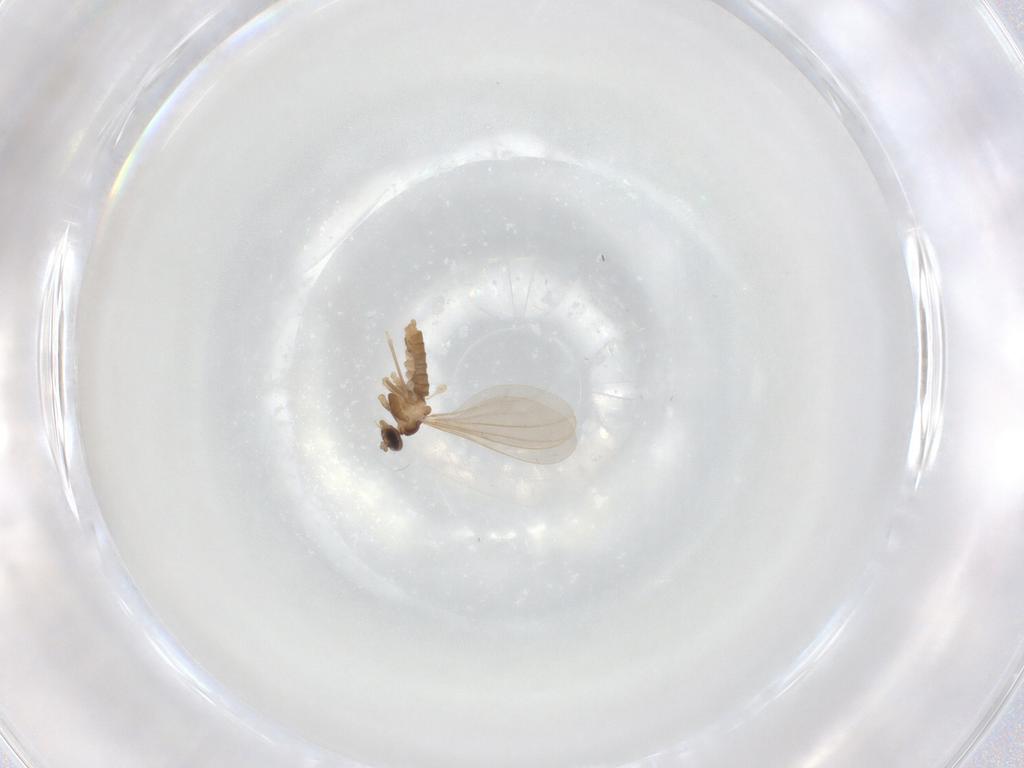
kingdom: Animalia
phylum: Arthropoda
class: Insecta
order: Diptera
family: Cecidomyiidae
